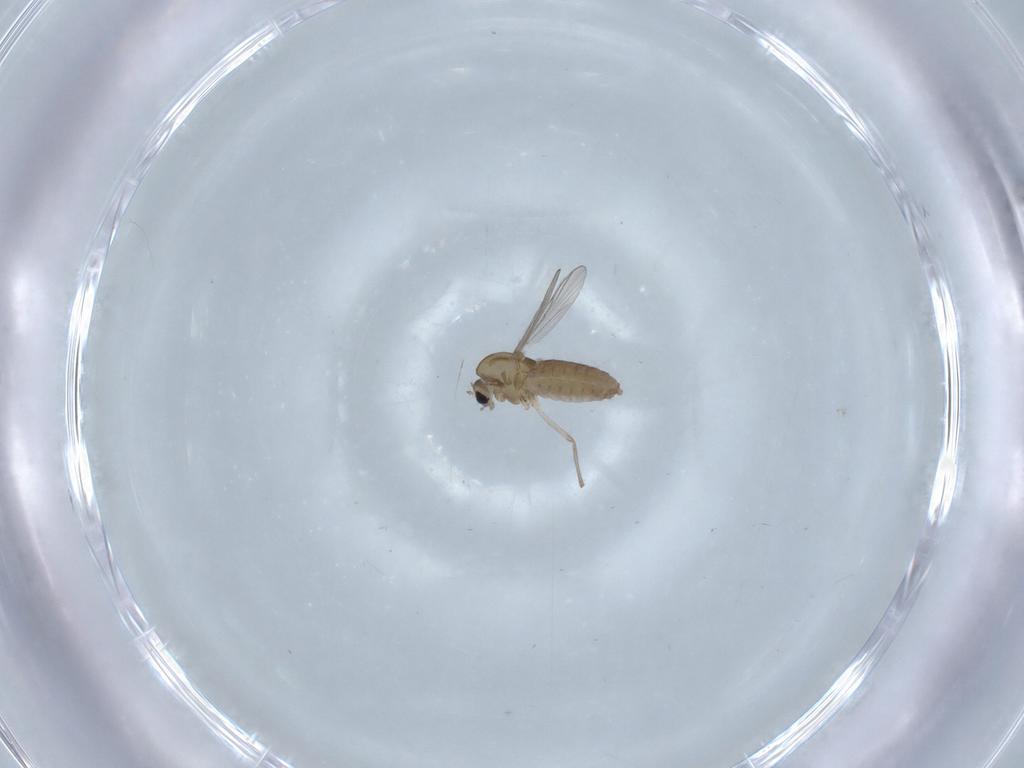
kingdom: Animalia
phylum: Arthropoda
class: Insecta
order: Diptera
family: Mycetophilidae
